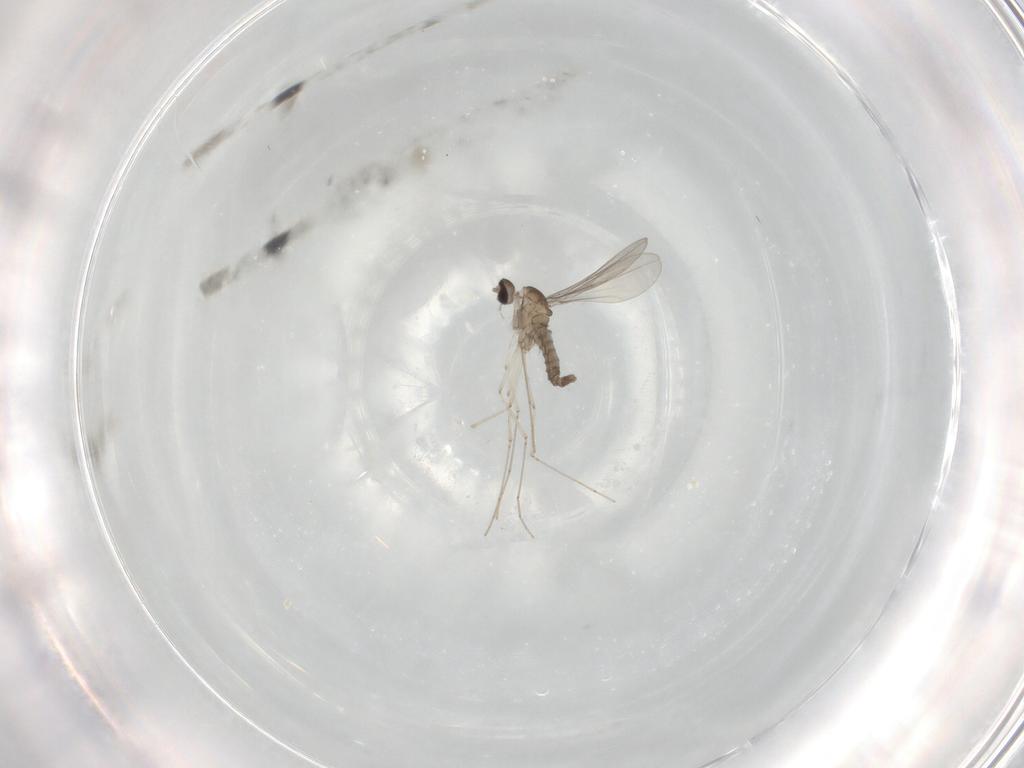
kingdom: Animalia
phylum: Arthropoda
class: Insecta
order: Diptera
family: Cecidomyiidae
